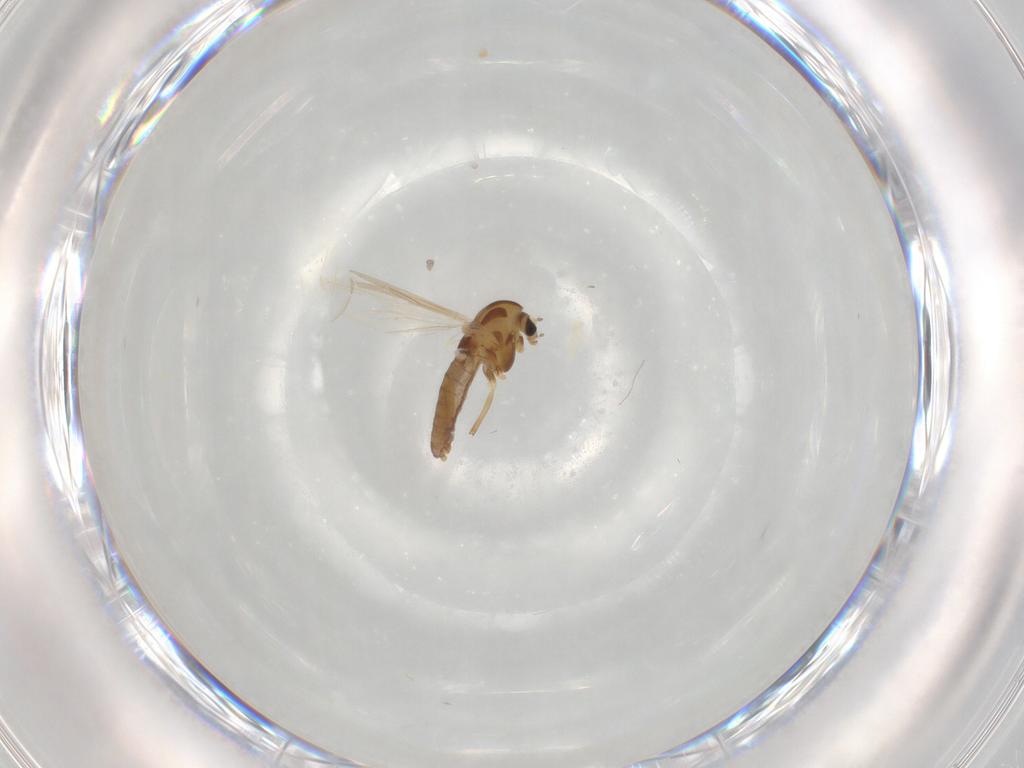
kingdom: Animalia
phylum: Arthropoda
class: Insecta
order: Diptera
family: Chironomidae
